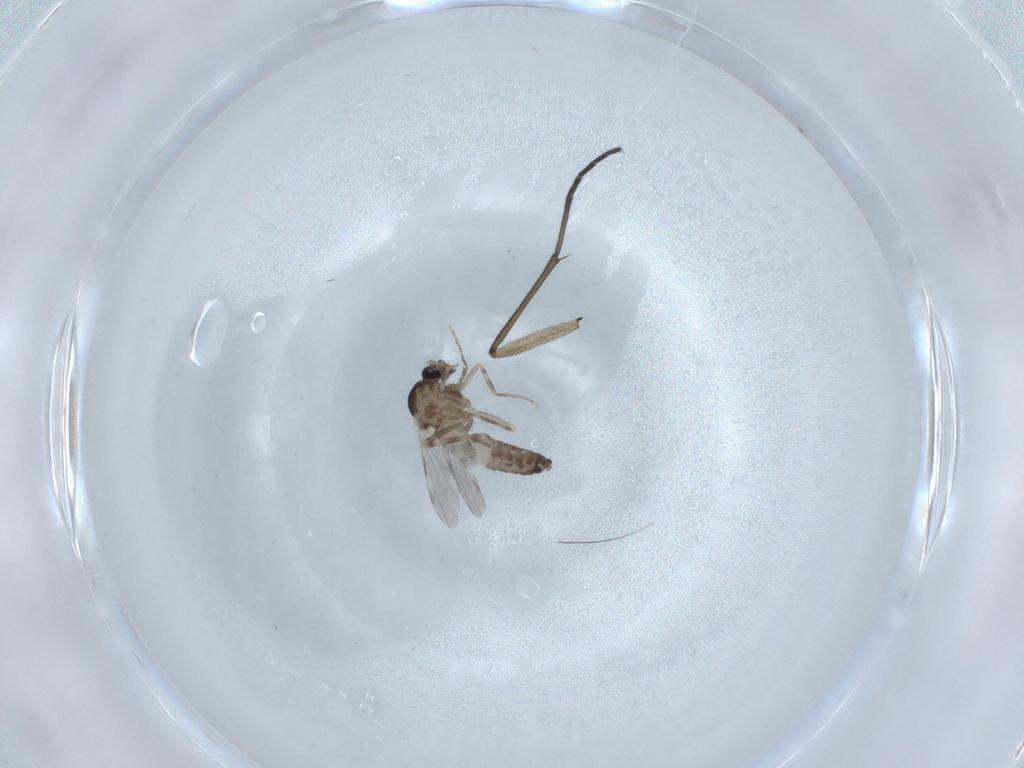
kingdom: Animalia
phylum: Arthropoda
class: Insecta
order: Diptera
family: Ceratopogonidae
